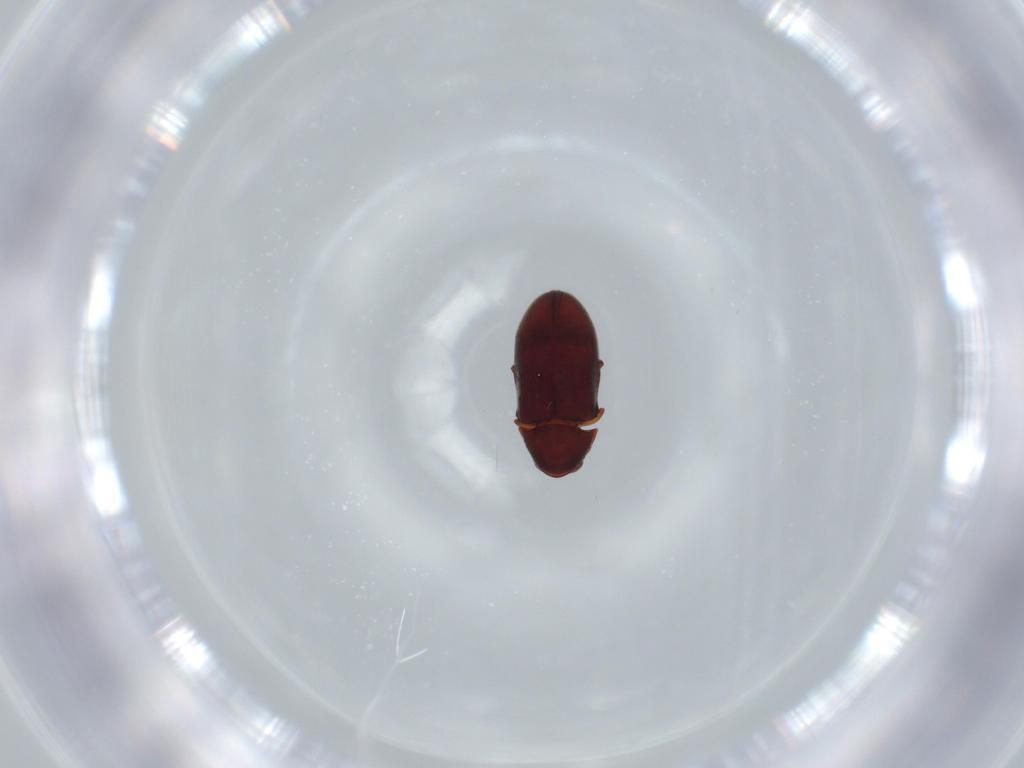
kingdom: Animalia
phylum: Arthropoda
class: Insecta
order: Coleoptera
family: Ptinidae
